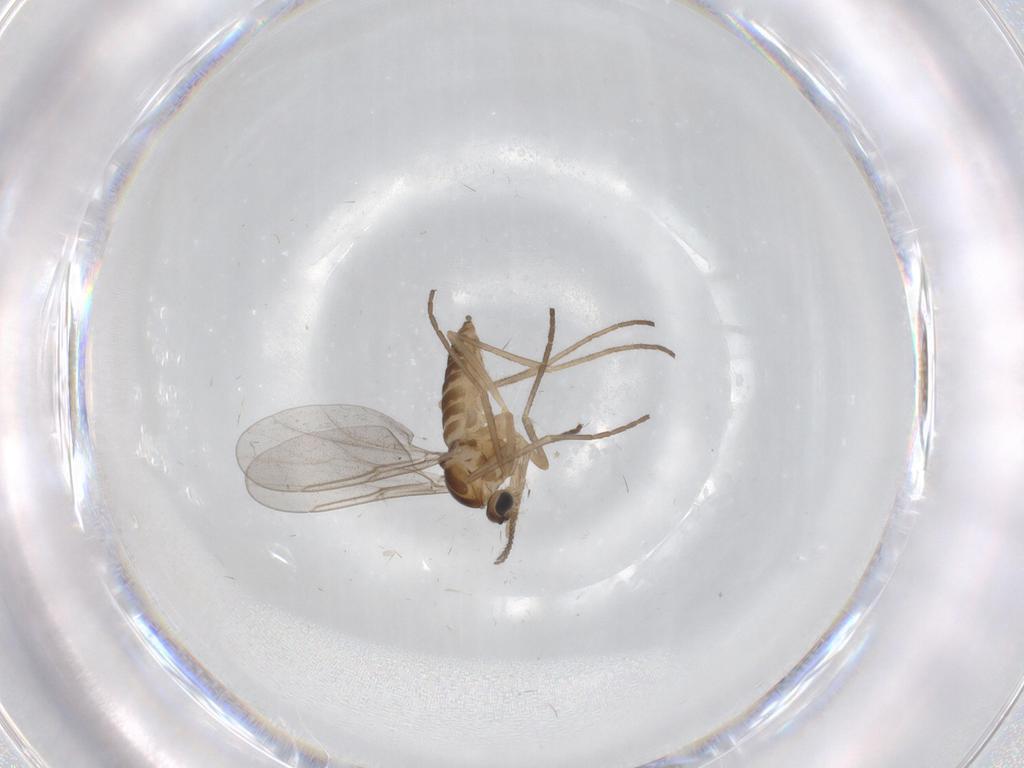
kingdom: Animalia
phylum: Arthropoda
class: Insecta
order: Diptera
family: Cecidomyiidae
